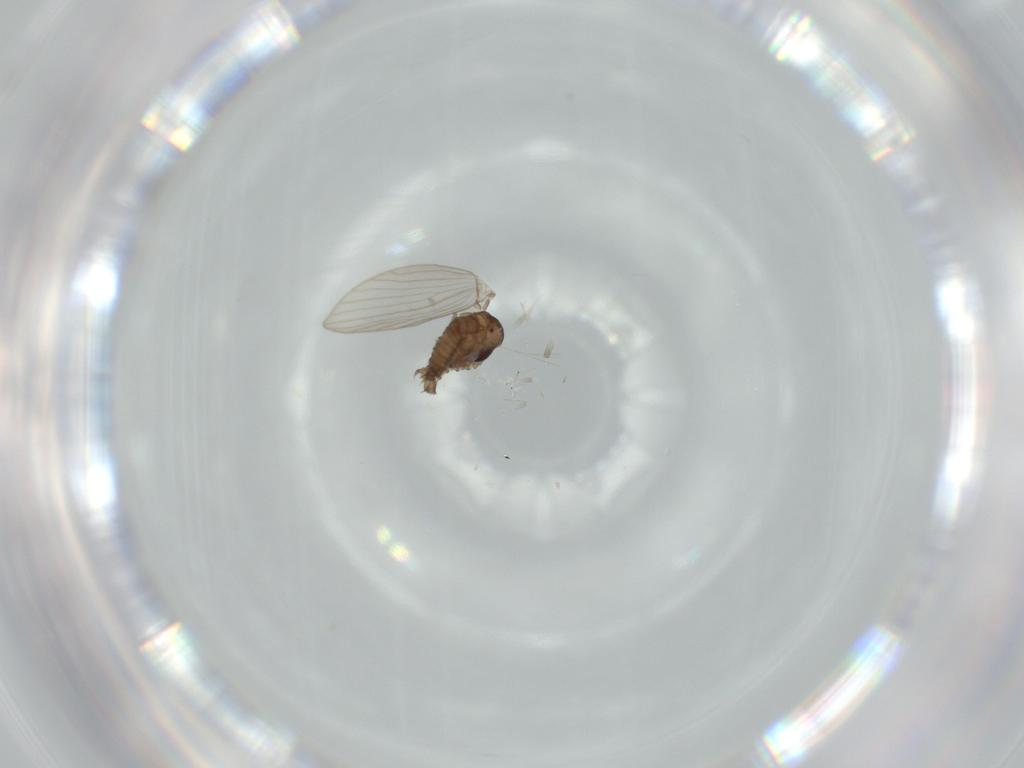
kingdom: Animalia
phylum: Arthropoda
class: Insecta
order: Diptera
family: Psychodidae
